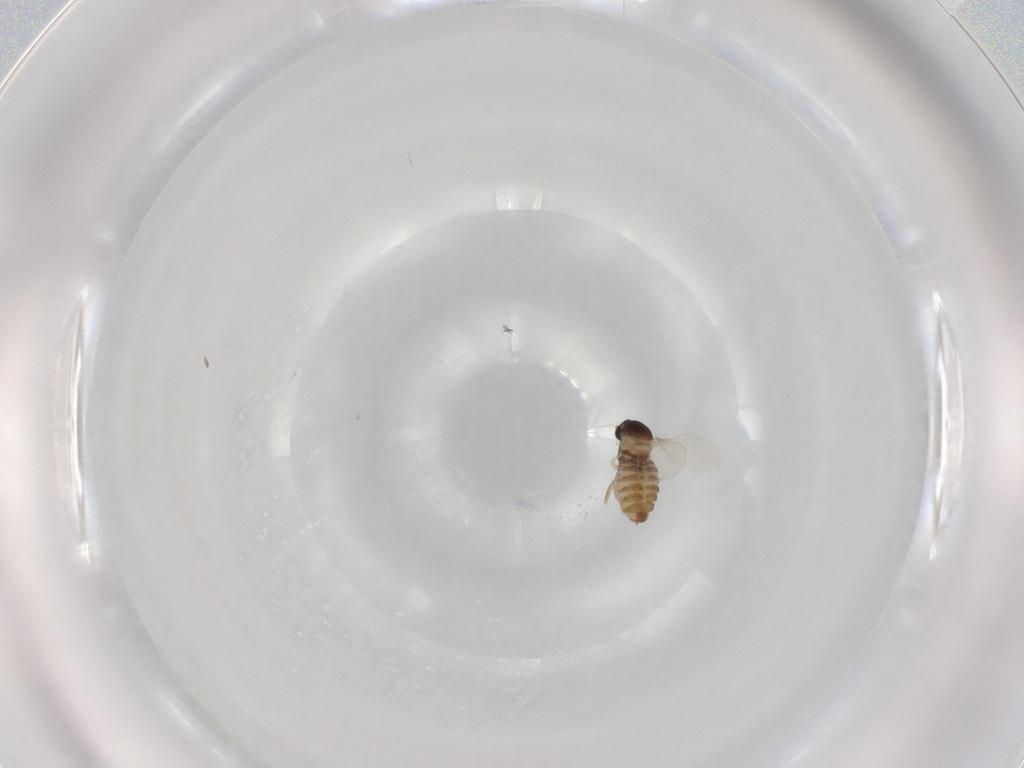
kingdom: Animalia
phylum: Arthropoda
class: Insecta
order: Diptera
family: Cecidomyiidae
